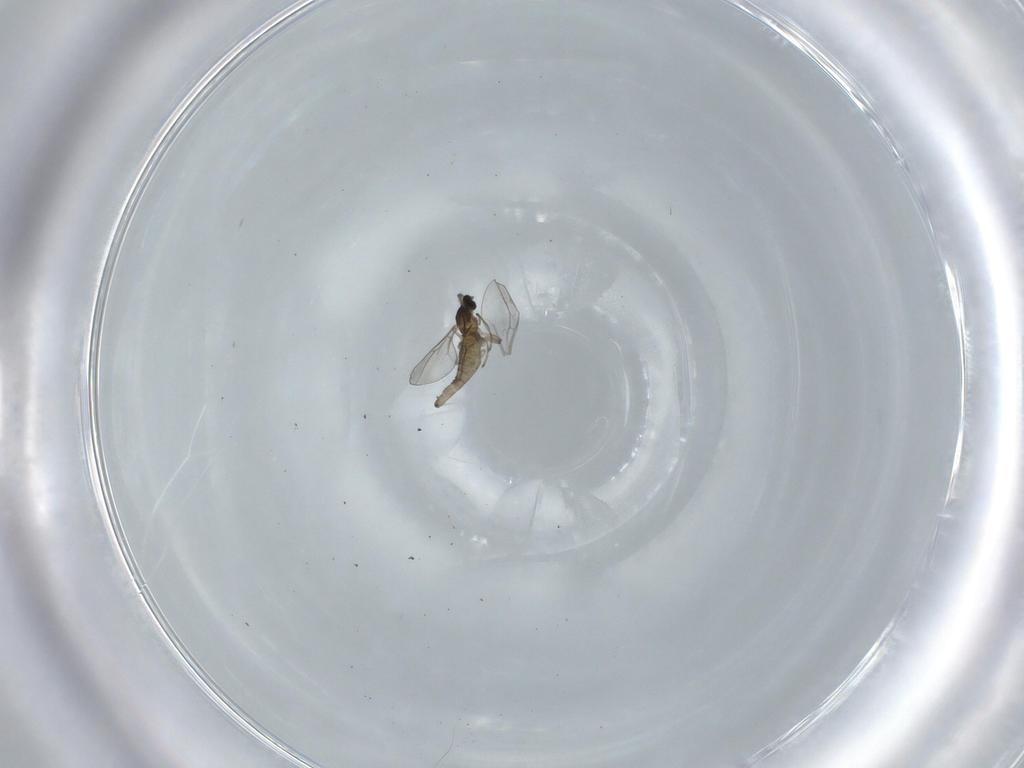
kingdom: Animalia
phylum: Arthropoda
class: Insecta
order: Diptera
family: Cecidomyiidae
